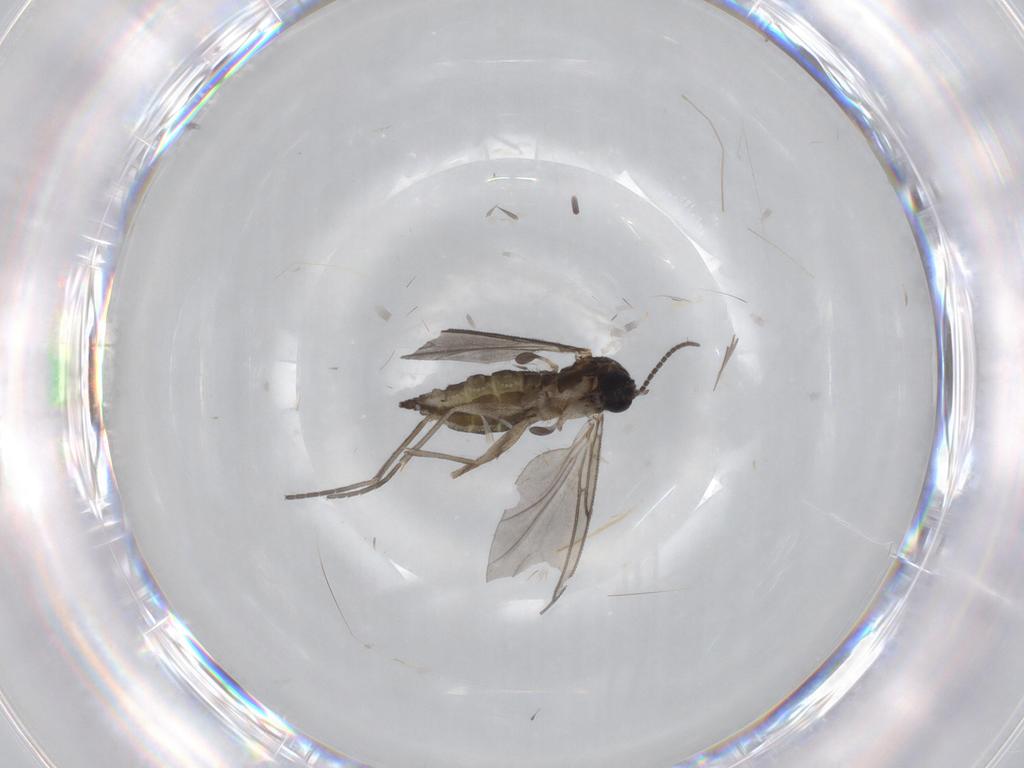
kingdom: Animalia
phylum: Arthropoda
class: Insecta
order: Diptera
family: Sciaridae
